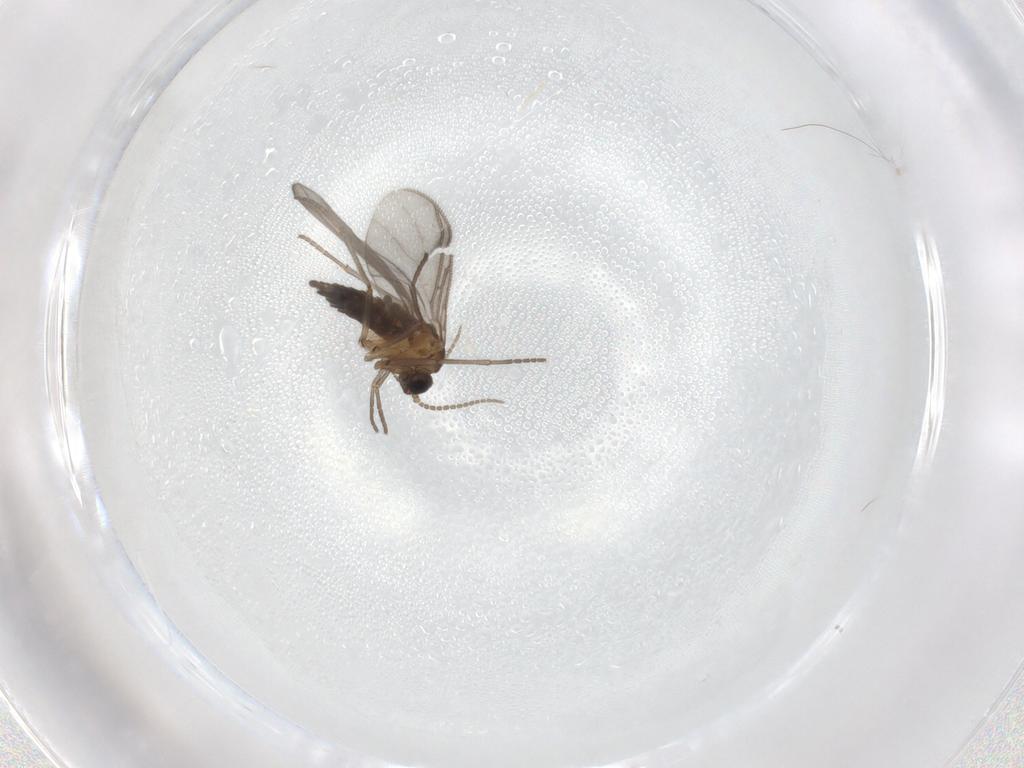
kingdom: Animalia
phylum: Arthropoda
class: Insecta
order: Diptera
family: Sciaridae
